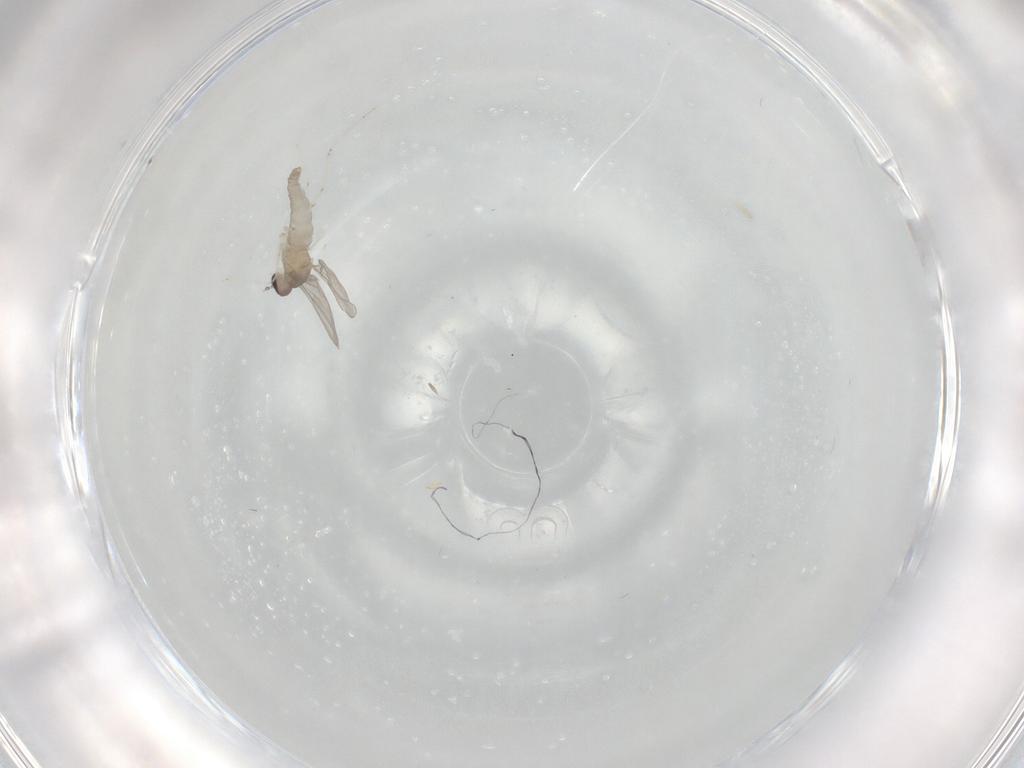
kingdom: Animalia
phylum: Arthropoda
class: Insecta
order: Diptera
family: Cecidomyiidae
